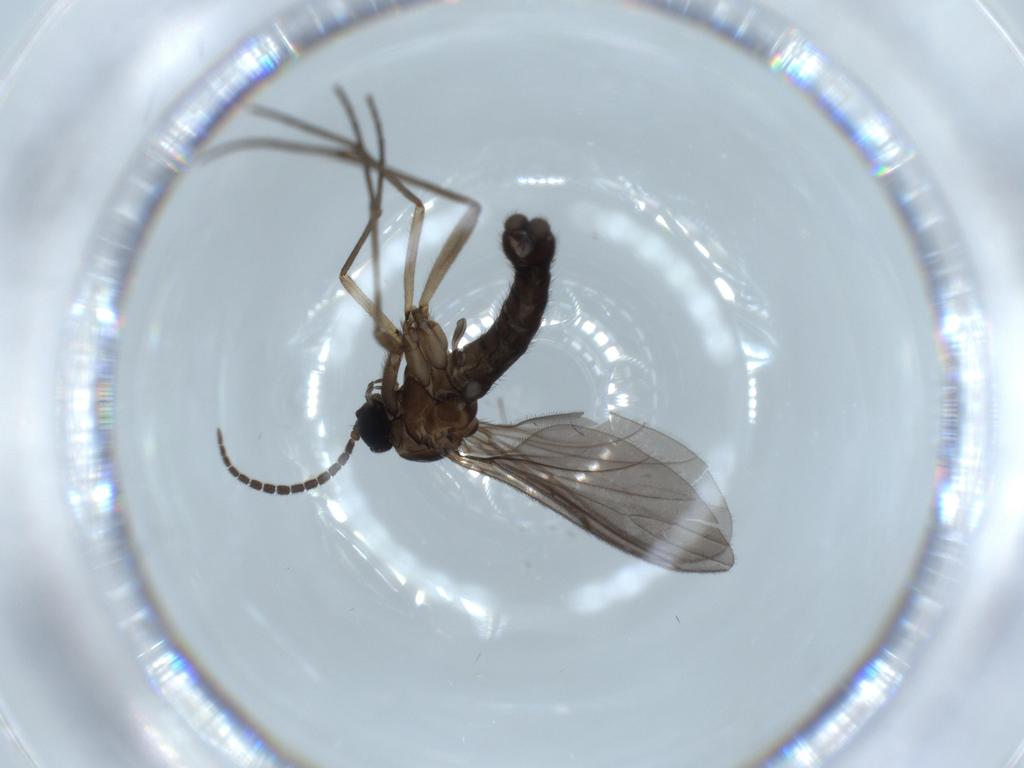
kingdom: Animalia
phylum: Arthropoda
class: Insecta
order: Diptera
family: Sciaridae
